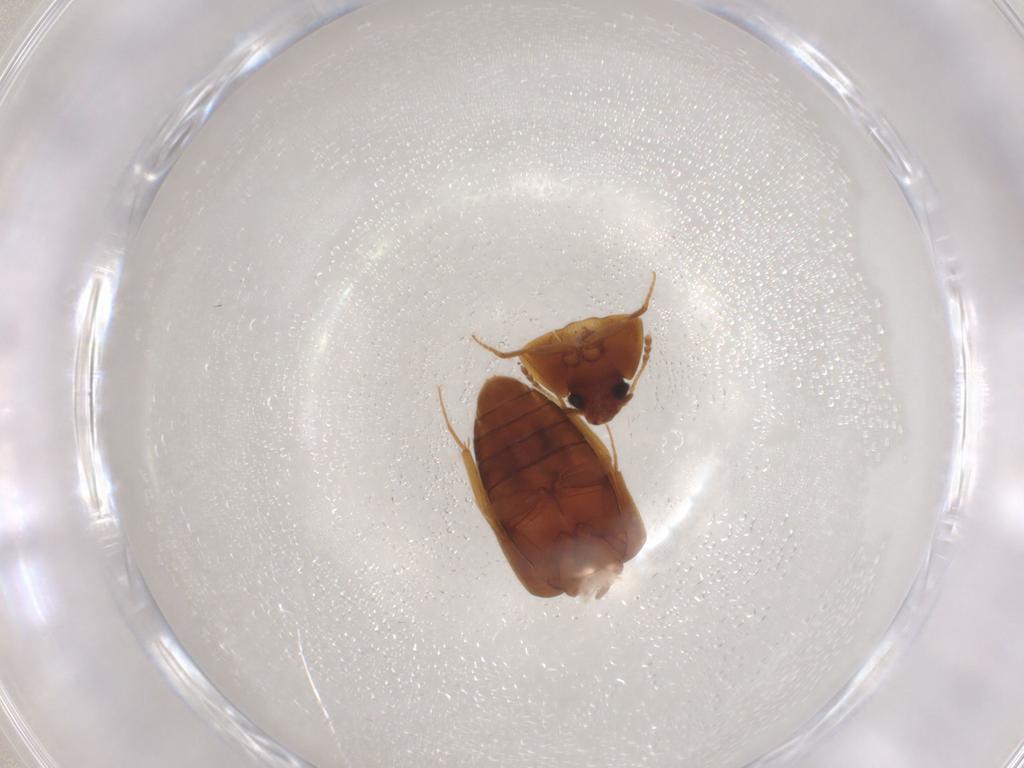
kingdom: Animalia
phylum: Arthropoda
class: Insecta
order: Coleoptera
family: Mycetophagidae
